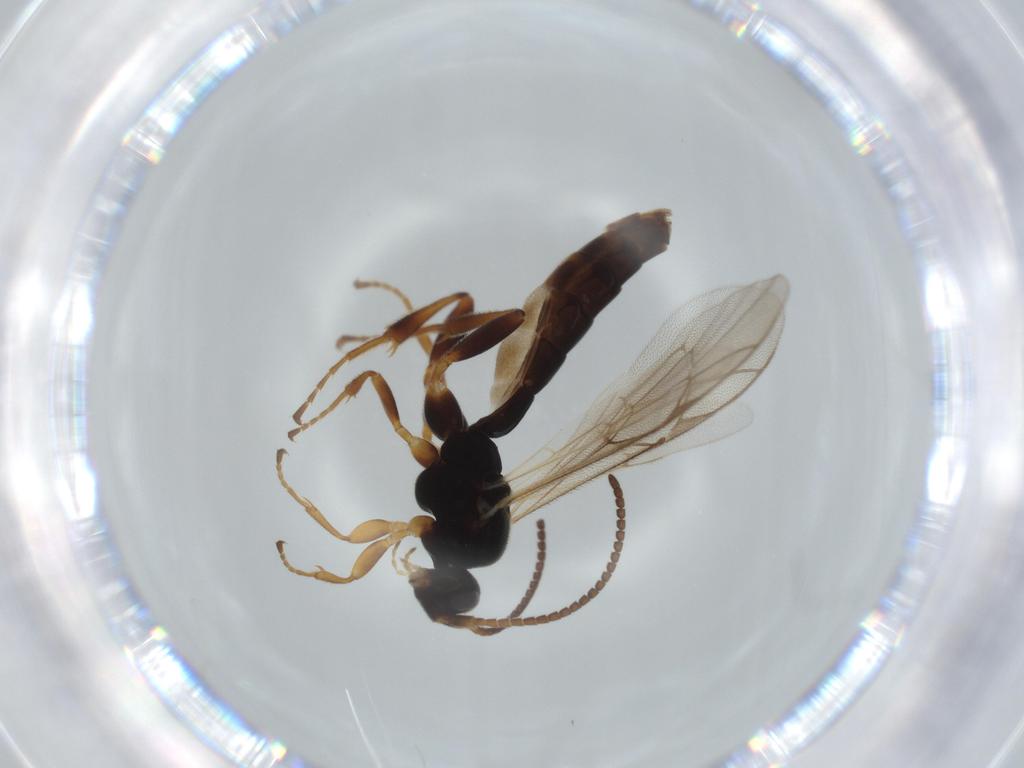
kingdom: Animalia
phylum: Arthropoda
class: Insecta
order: Hymenoptera
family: Ichneumonidae
